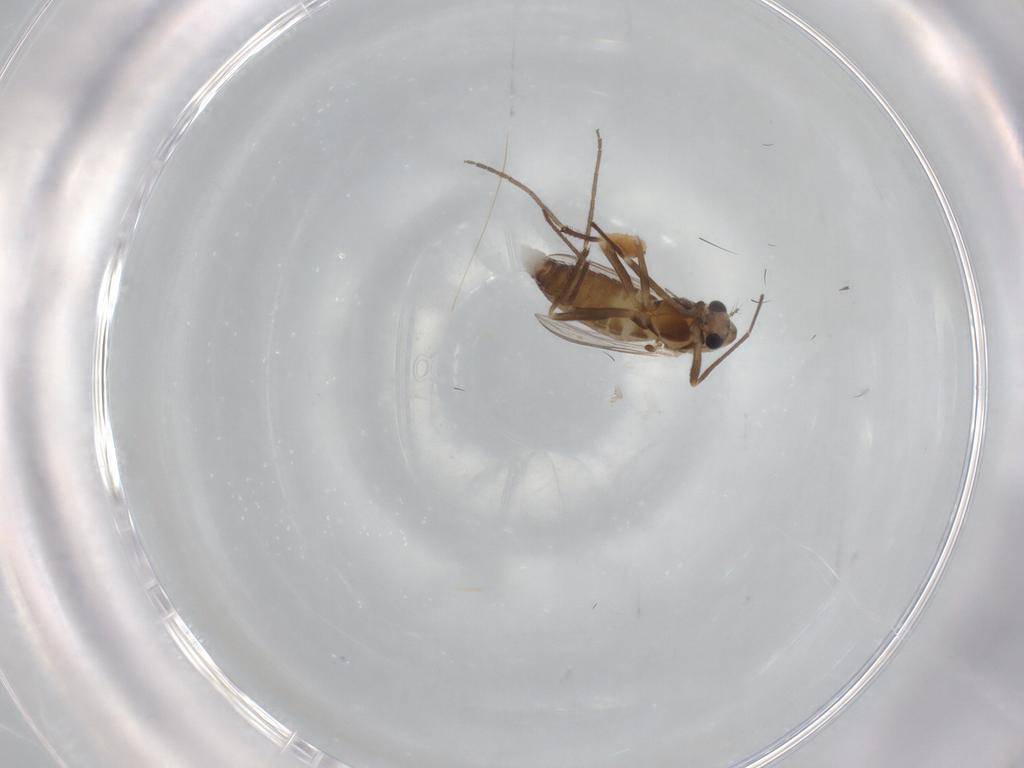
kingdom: Animalia
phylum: Arthropoda
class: Insecta
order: Diptera
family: Chironomidae
